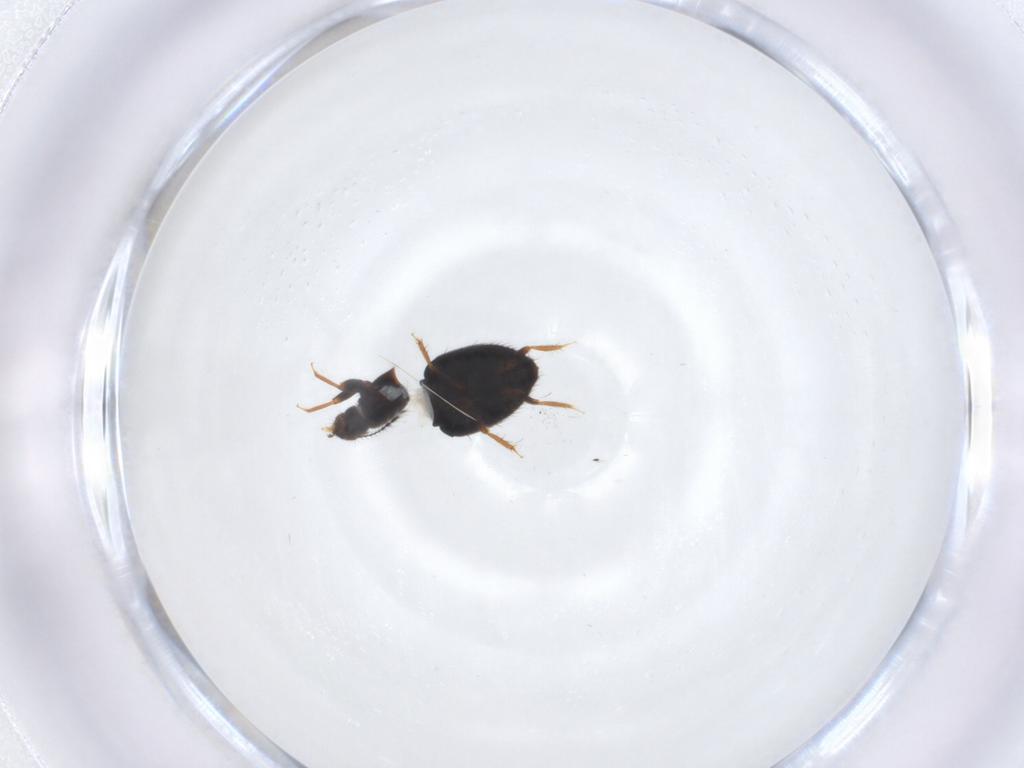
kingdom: Animalia
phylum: Arthropoda
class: Insecta
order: Coleoptera
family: Ptiliidae
